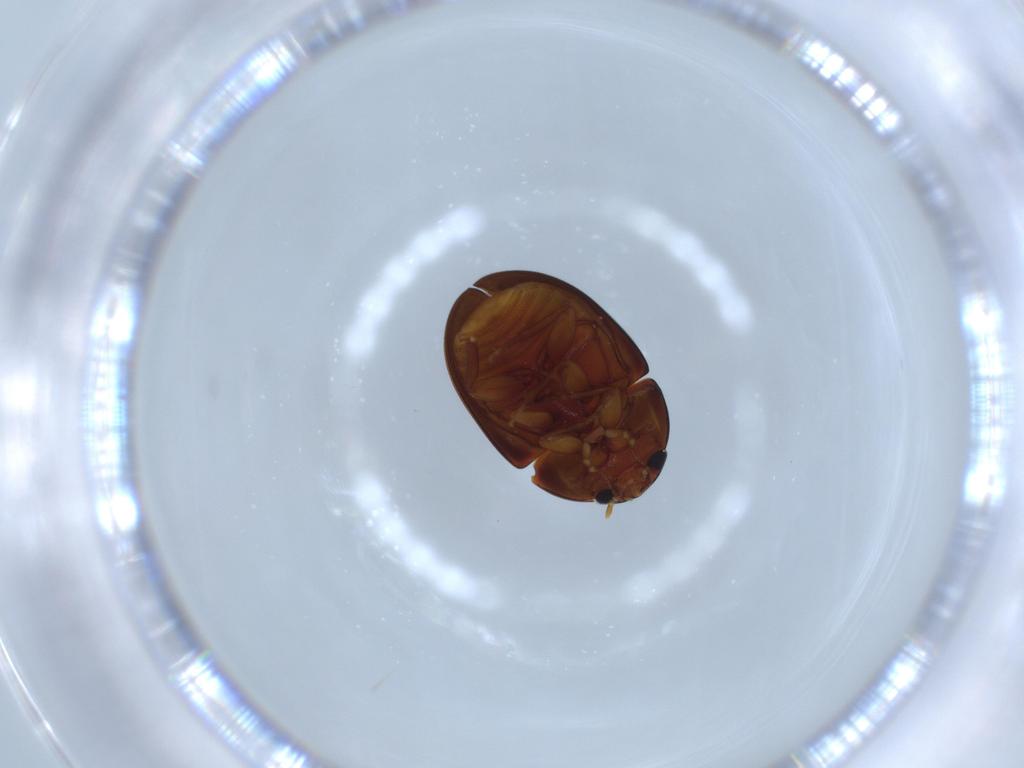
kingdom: Animalia
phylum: Arthropoda
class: Insecta
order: Coleoptera
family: Phalacridae
